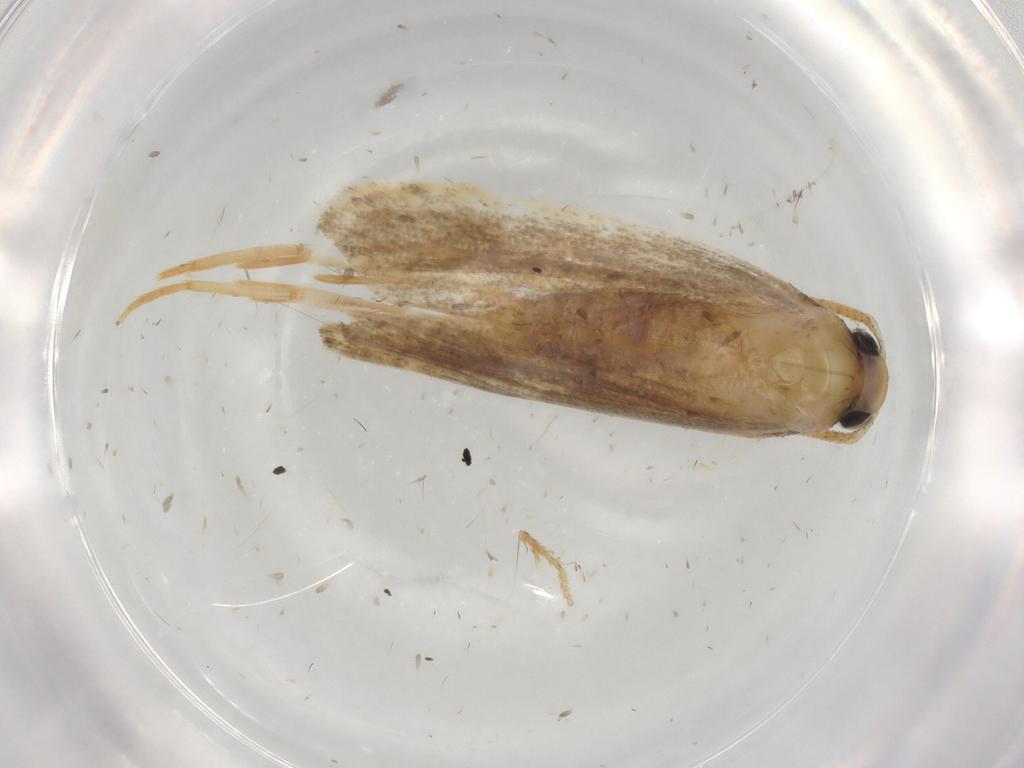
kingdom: Animalia
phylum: Arthropoda
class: Insecta
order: Lepidoptera
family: Autostichidae
